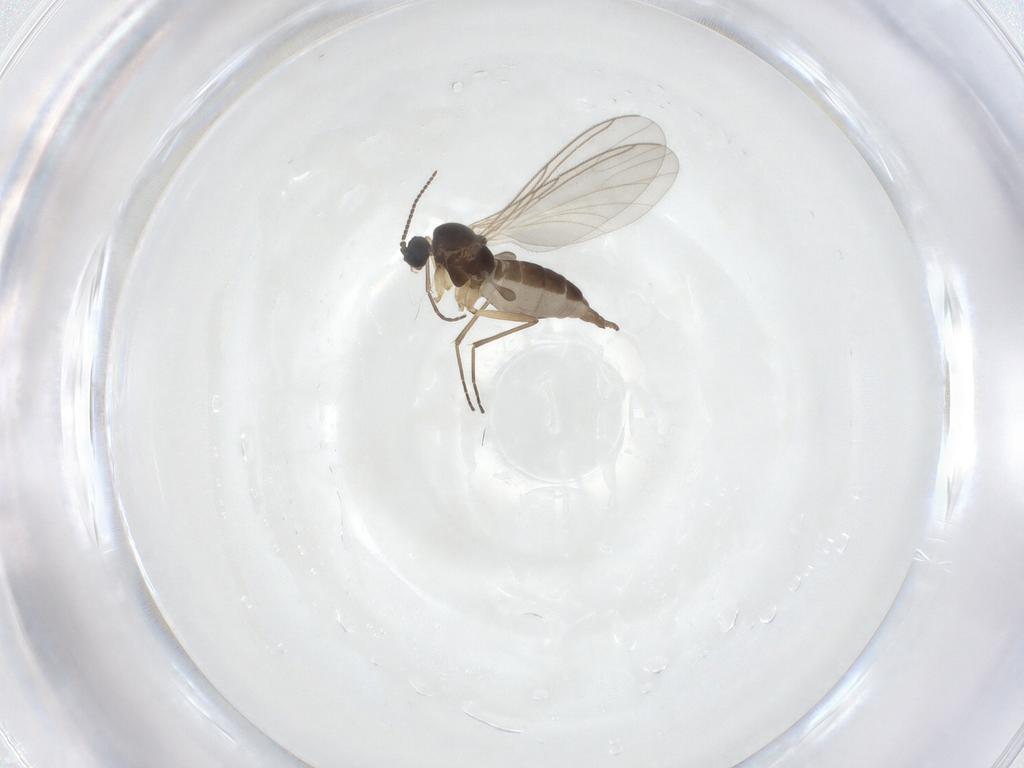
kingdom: Animalia
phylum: Arthropoda
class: Insecta
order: Diptera
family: Sciaridae
